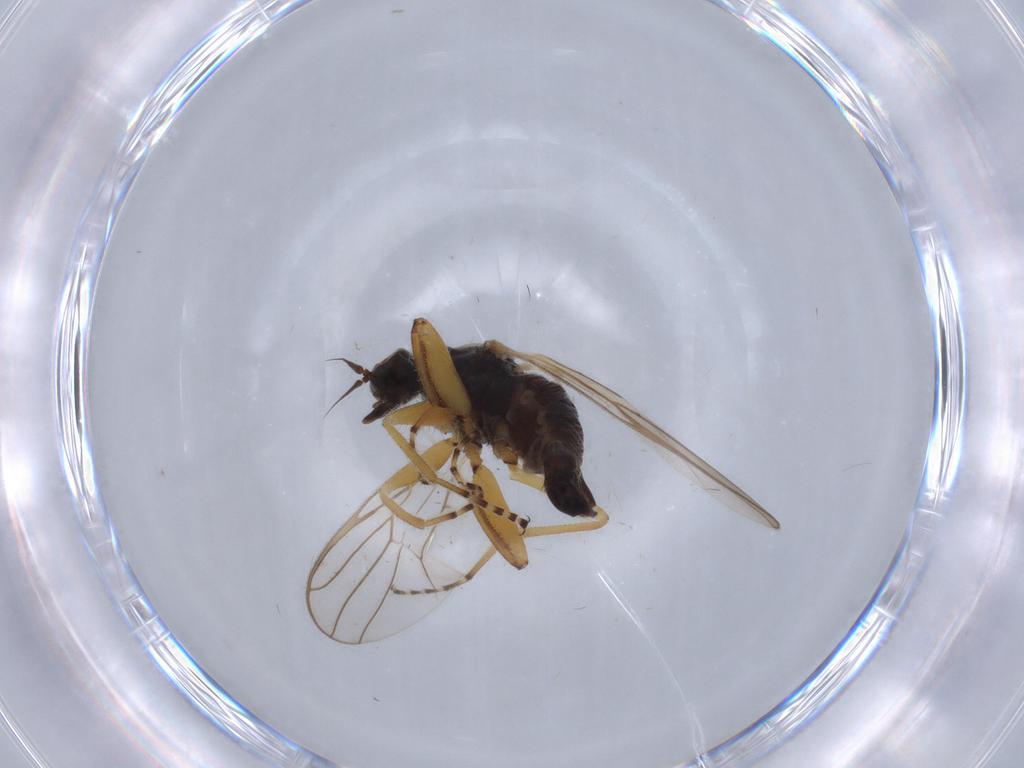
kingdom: Animalia
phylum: Arthropoda
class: Insecta
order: Diptera
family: Hybotidae
